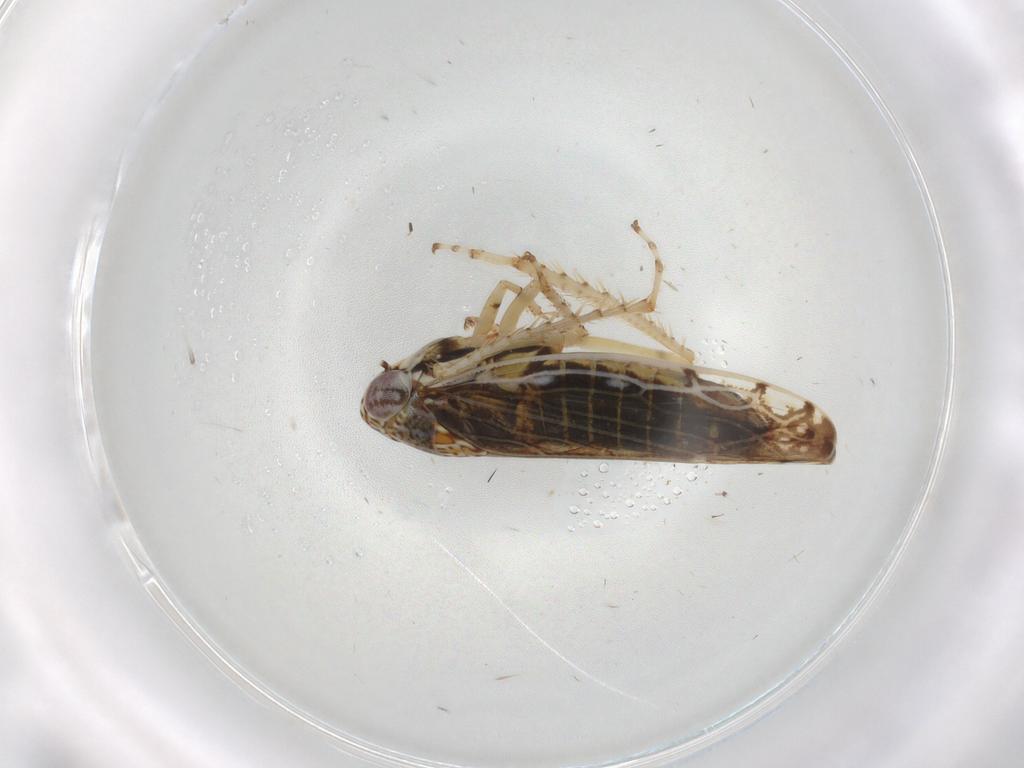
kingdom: Animalia
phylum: Arthropoda
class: Insecta
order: Hemiptera
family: Cicadellidae
